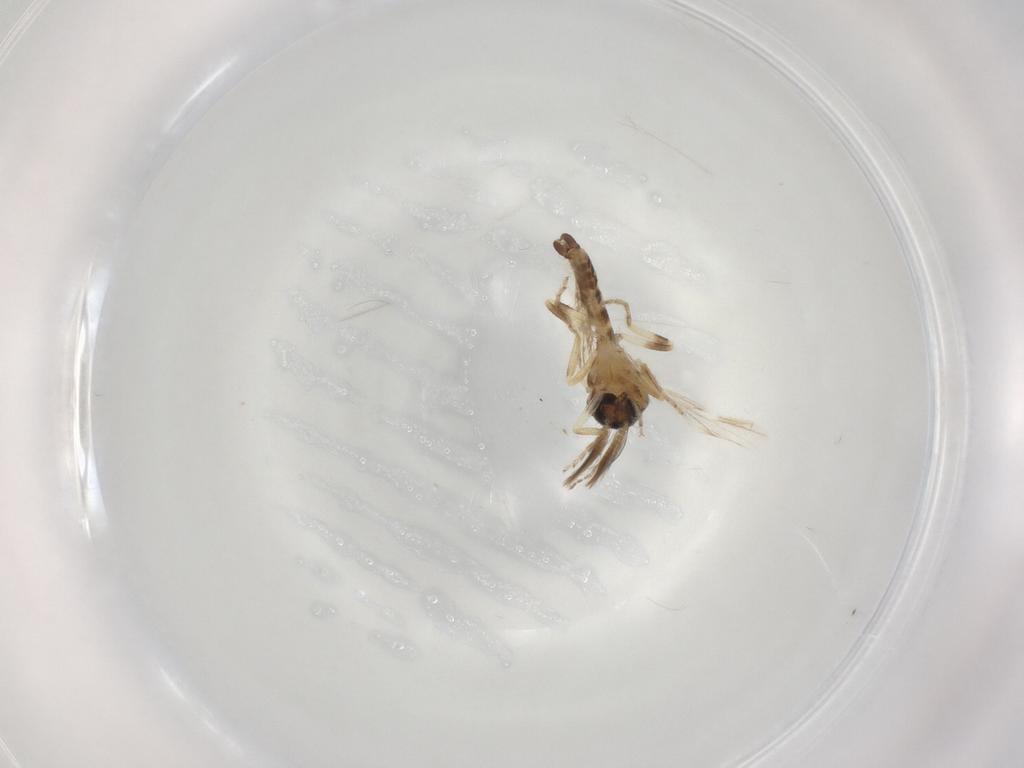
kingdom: Animalia
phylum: Arthropoda
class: Insecta
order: Diptera
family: Ceratopogonidae
